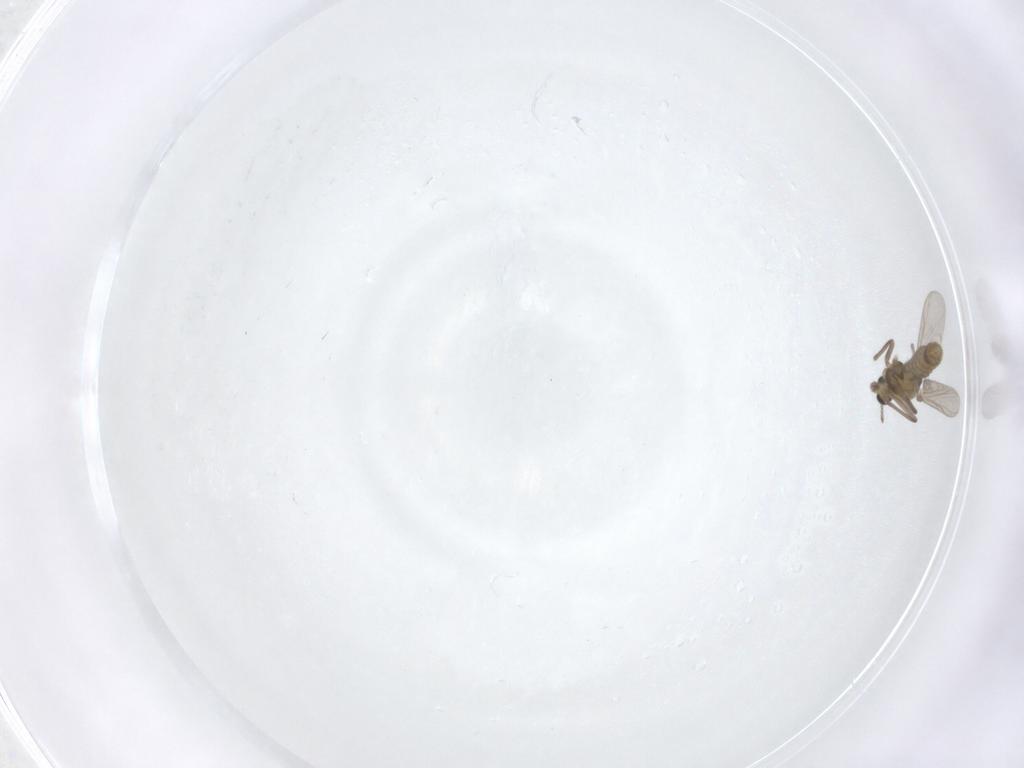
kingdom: Animalia
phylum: Arthropoda
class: Insecta
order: Diptera
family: Chironomidae
